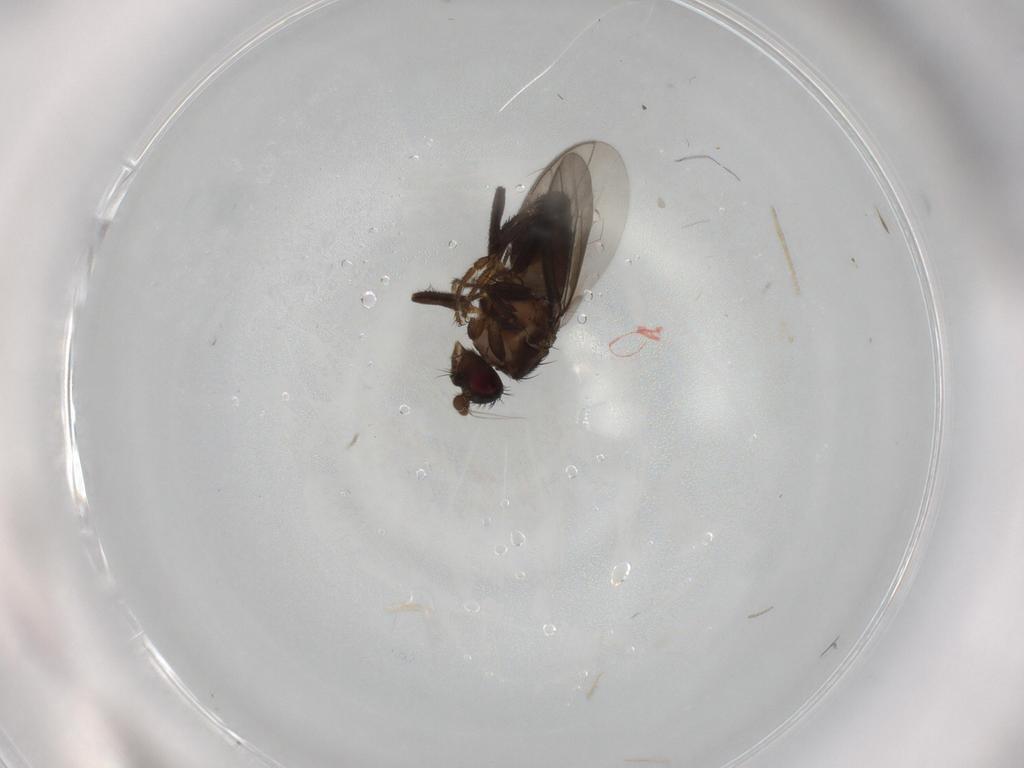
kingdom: Animalia
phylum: Arthropoda
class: Insecta
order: Diptera
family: Sphaeroceridae
